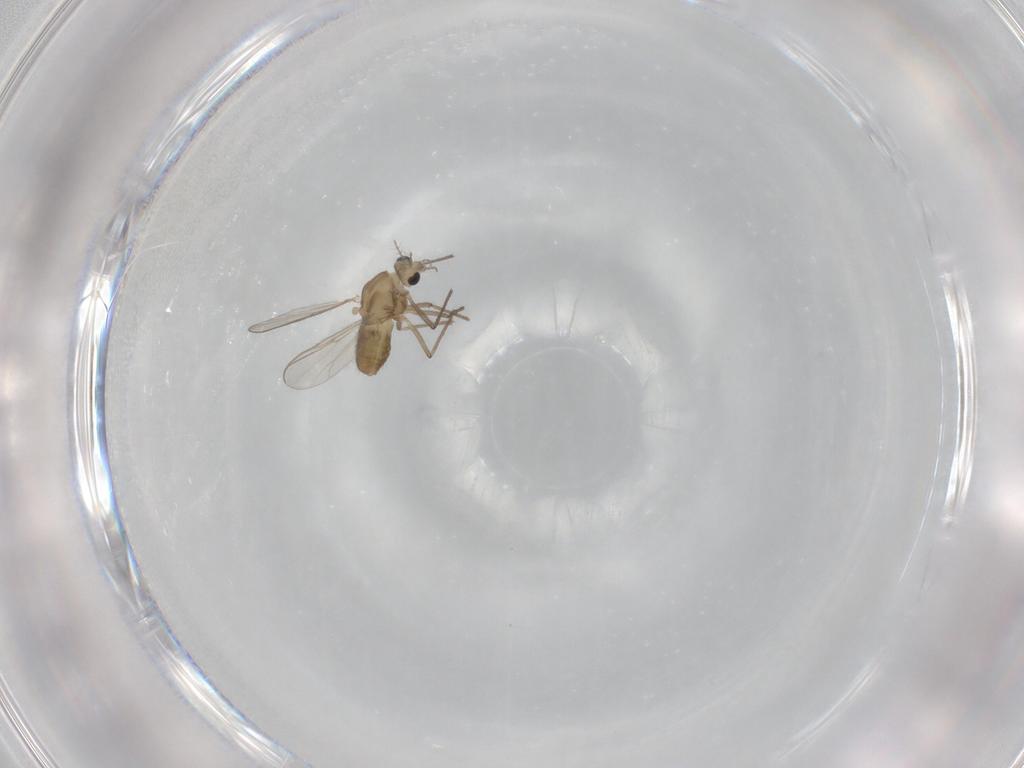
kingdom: Animalia
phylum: Arthropoda
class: Insecta
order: Diptera
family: Chironomidae
